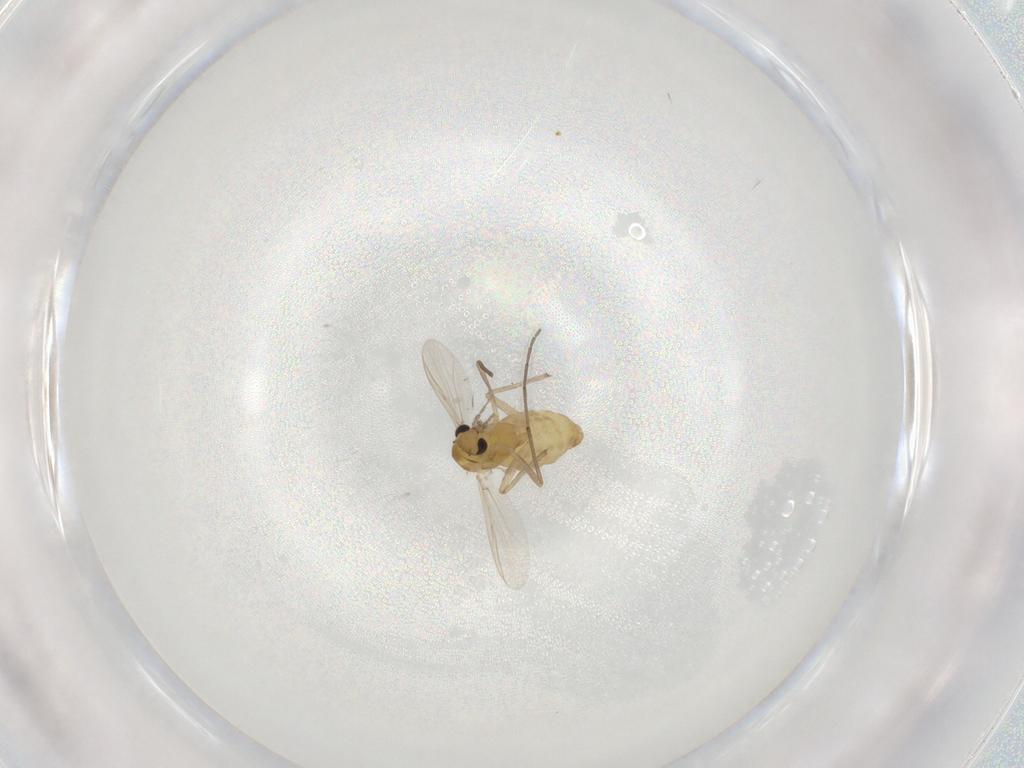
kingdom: Animalia
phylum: Arthropoda
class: Insecta
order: Diptera
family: Chironomidae
